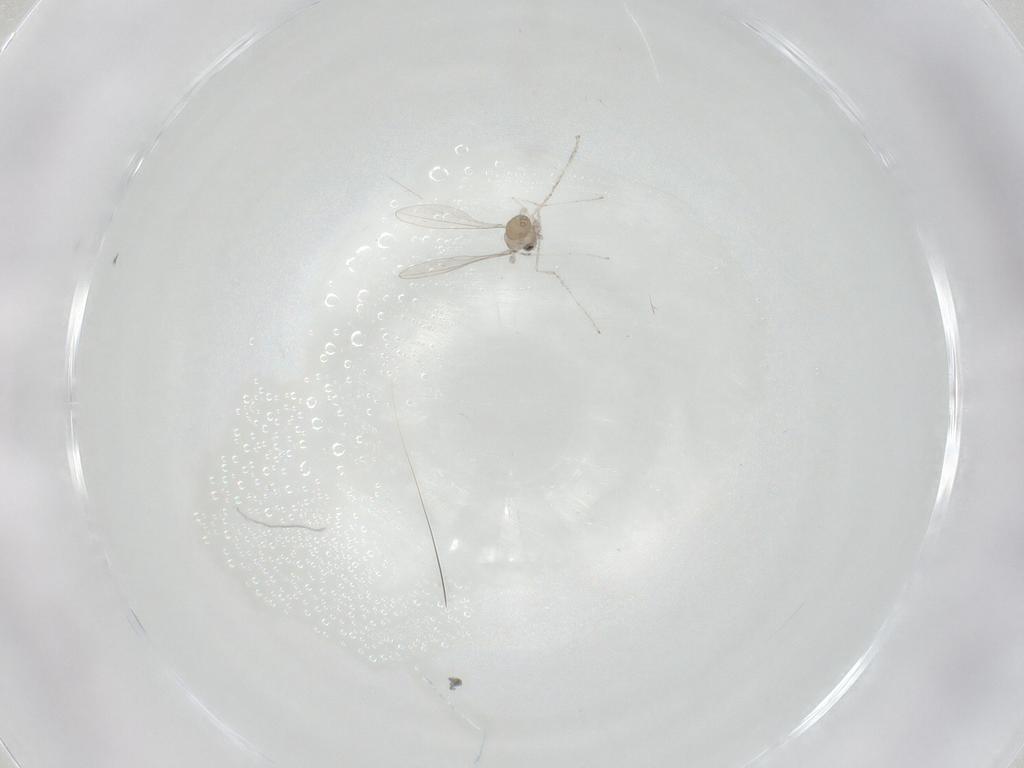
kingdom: Animalia
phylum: Arthropoda
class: Insecta
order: Diptera
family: Cecidomyiidae
